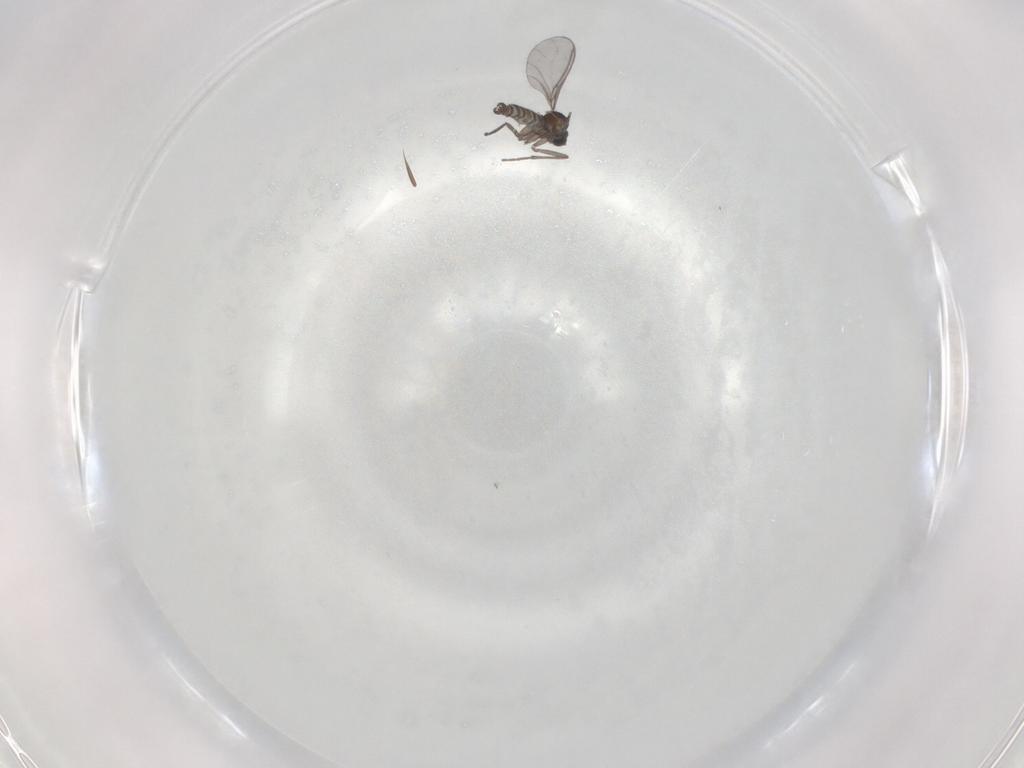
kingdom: Animalia
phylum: Arthropoda
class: Insecta
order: Diptera
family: Sciaridae
